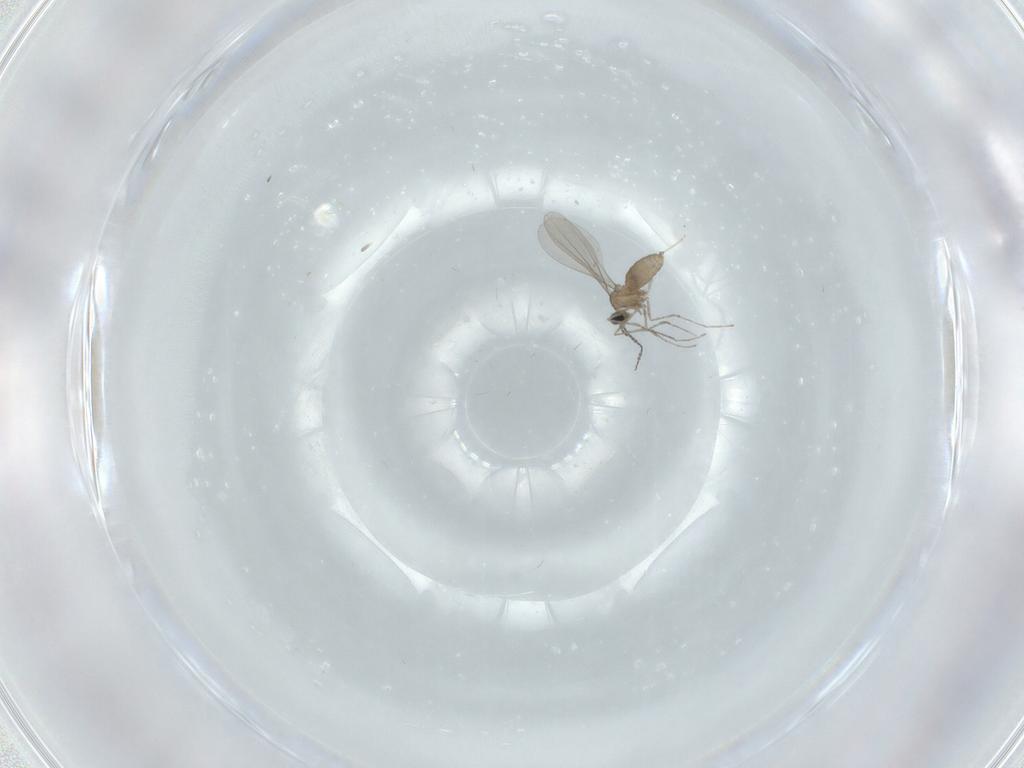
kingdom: Animalia
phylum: Arthropoda
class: Insecta
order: Diptera
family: Cecidomyiidae
